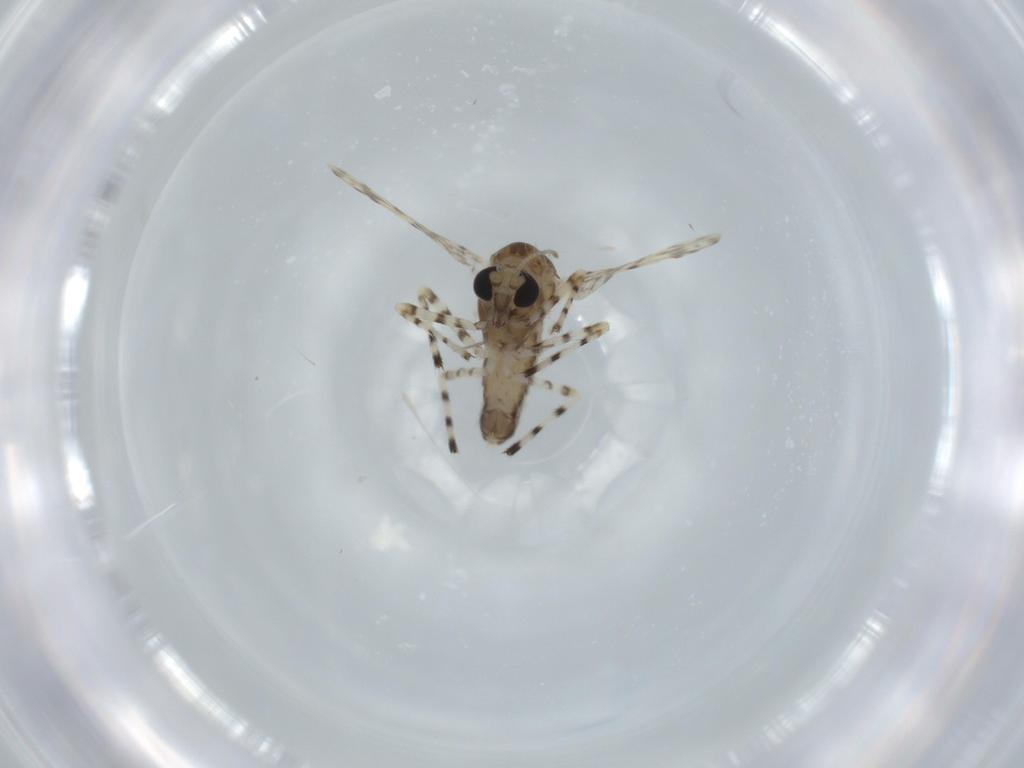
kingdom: Animalia
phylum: Arthropoda
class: Insecta
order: Diptera
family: Chironomidae
